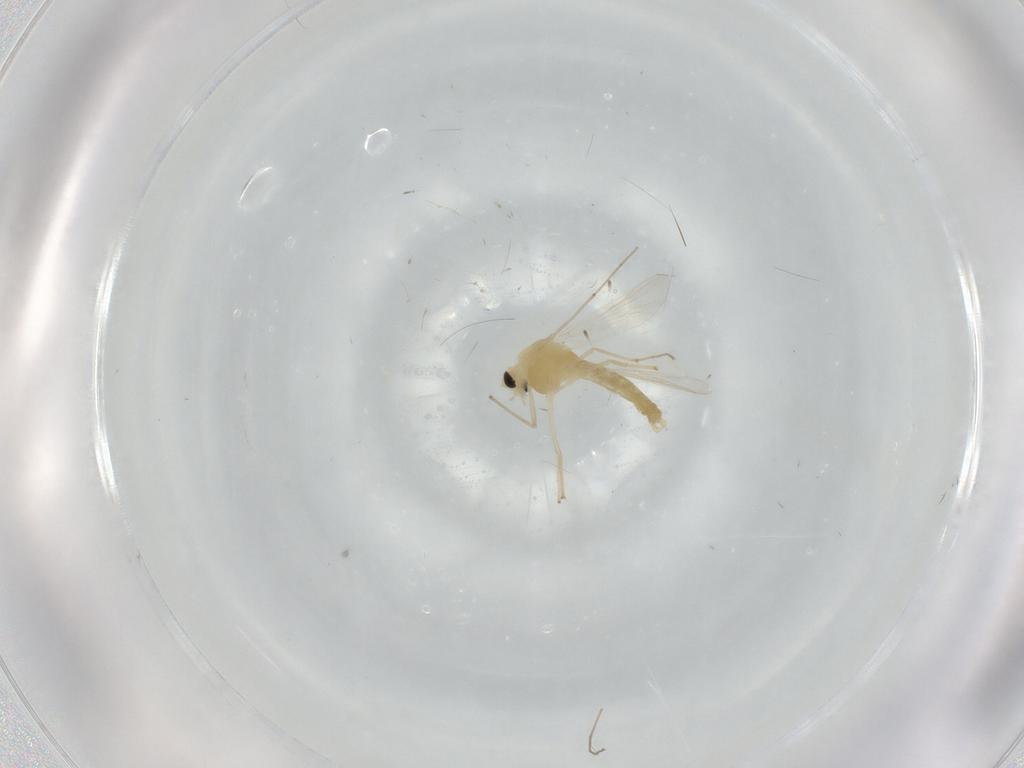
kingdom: Animalia
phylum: Arthropoda
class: Insecta
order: Diptera
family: Chironomidae
